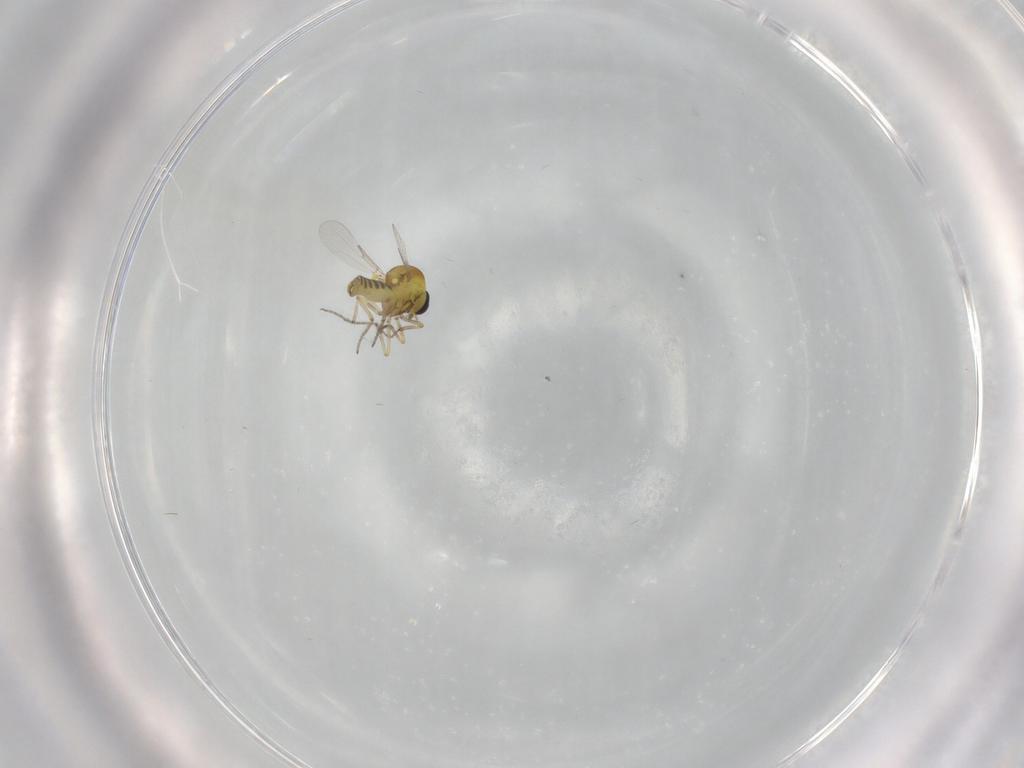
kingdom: Animalia
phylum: Arthropoda
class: Insecta
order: Diptera
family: Ceratopogonidae
